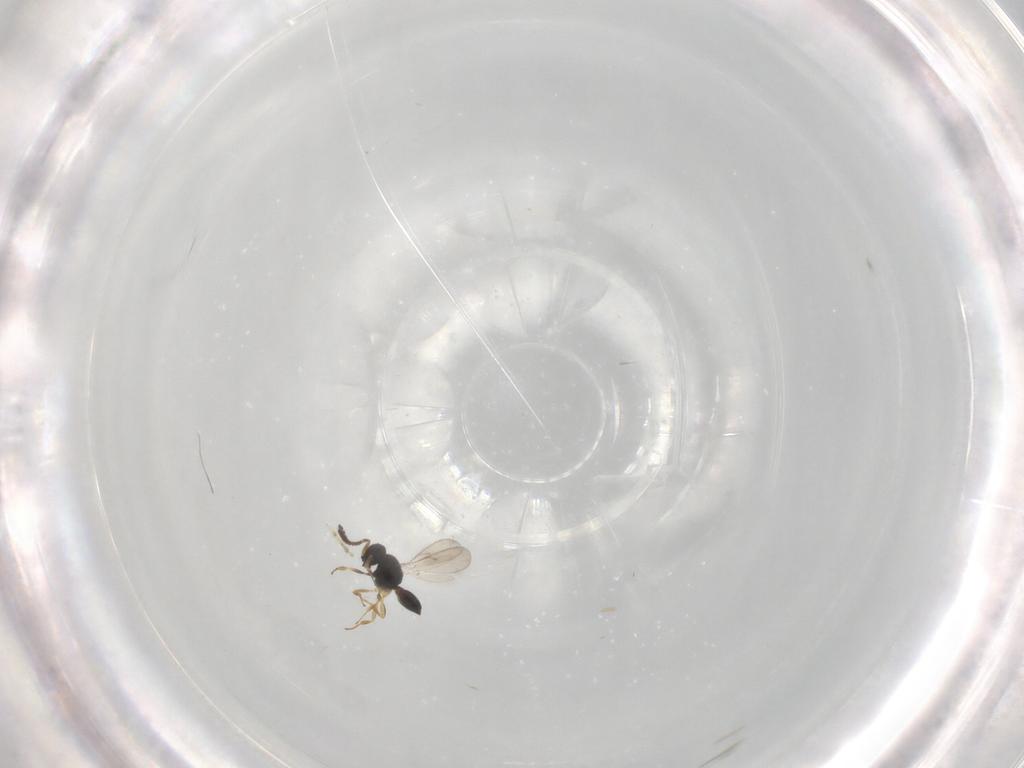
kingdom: Animalia
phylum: Arthropoda
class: Insecta
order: Hymenoptera
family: Scelionidae
